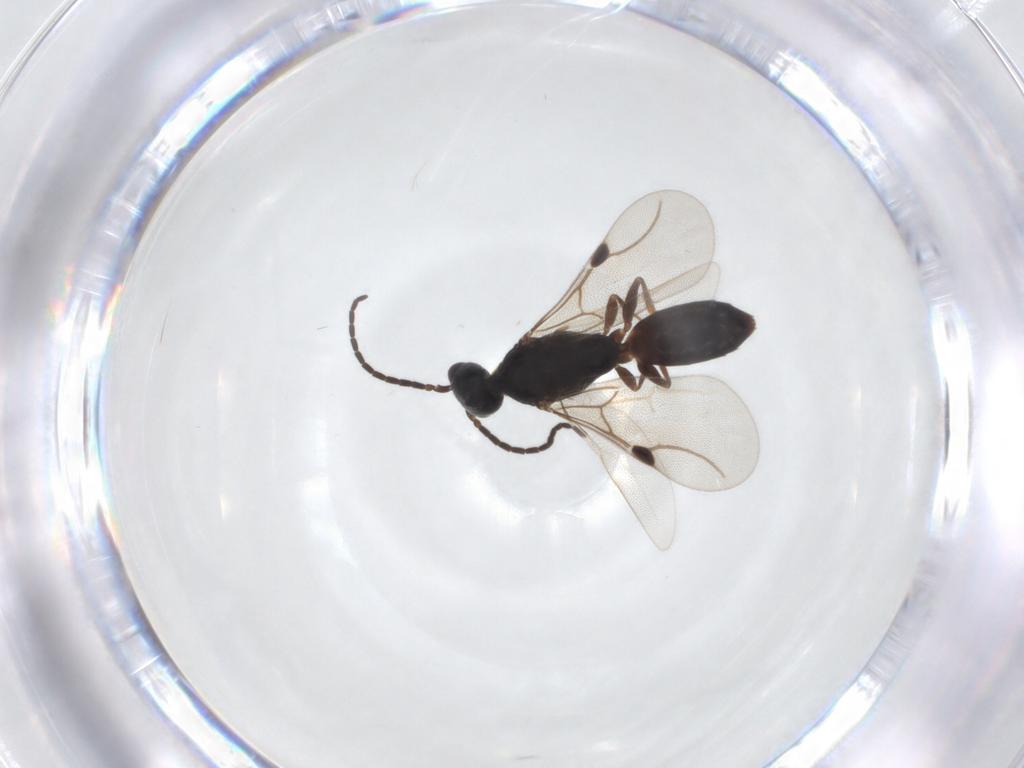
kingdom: Animalia
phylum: Arthropoda
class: Insecta
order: Hymenoptera
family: Bethylidae
